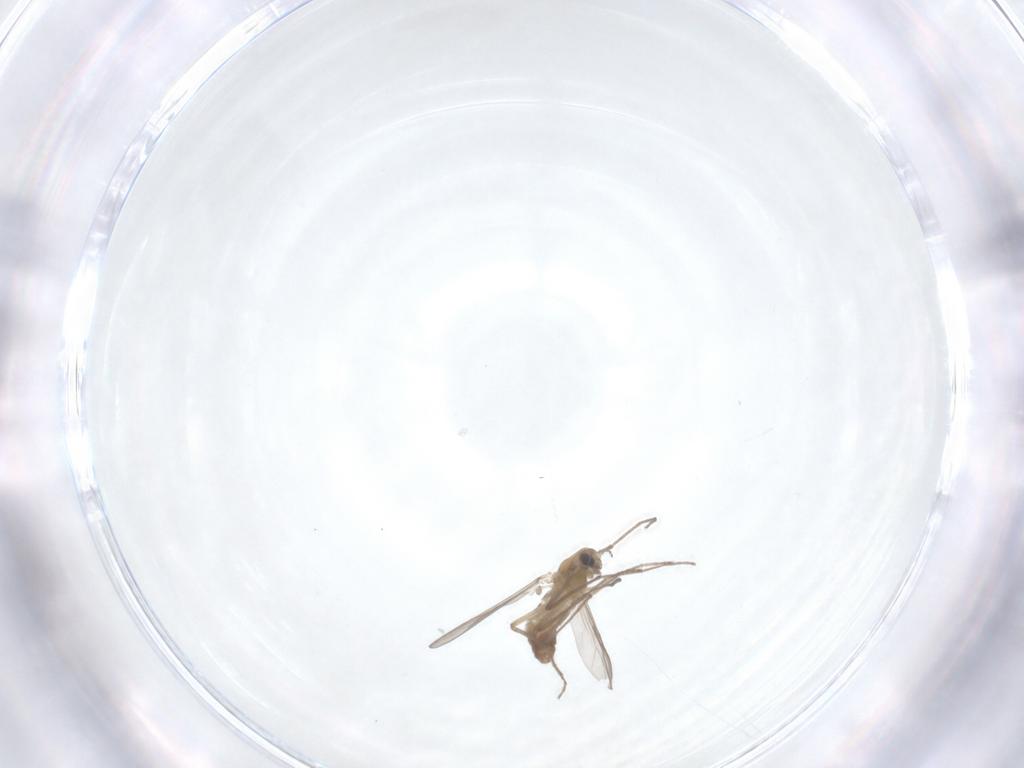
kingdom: Animalia
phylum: Arthropoda
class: Insecta
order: Diptera
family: Chironomidae
